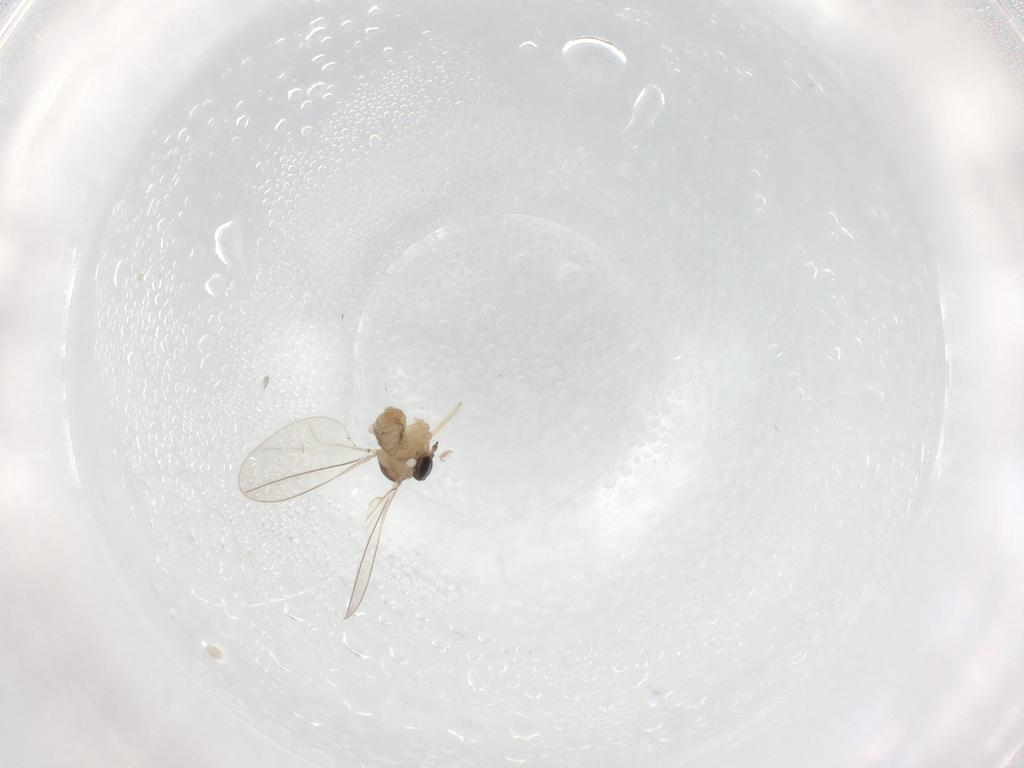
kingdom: Animalia
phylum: Arthropoda
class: Insecta
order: Diptera
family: Cecidomyiidae
